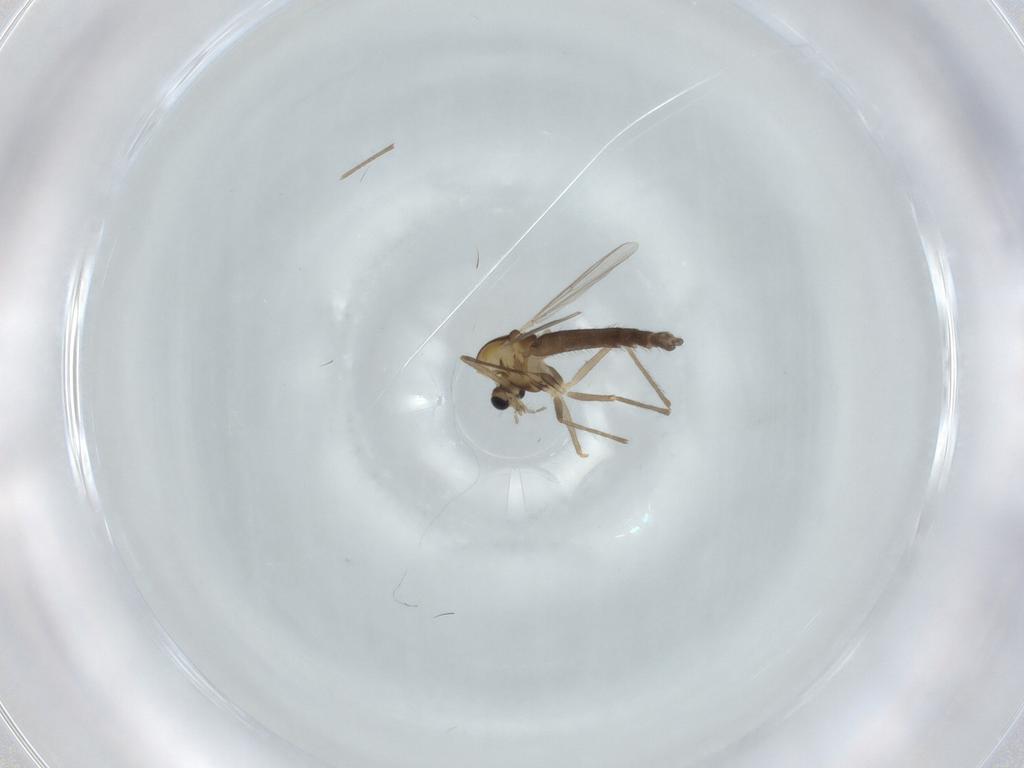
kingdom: Animalia
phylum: Arthropoda
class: Insecta
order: Diptera
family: Chironomidae
